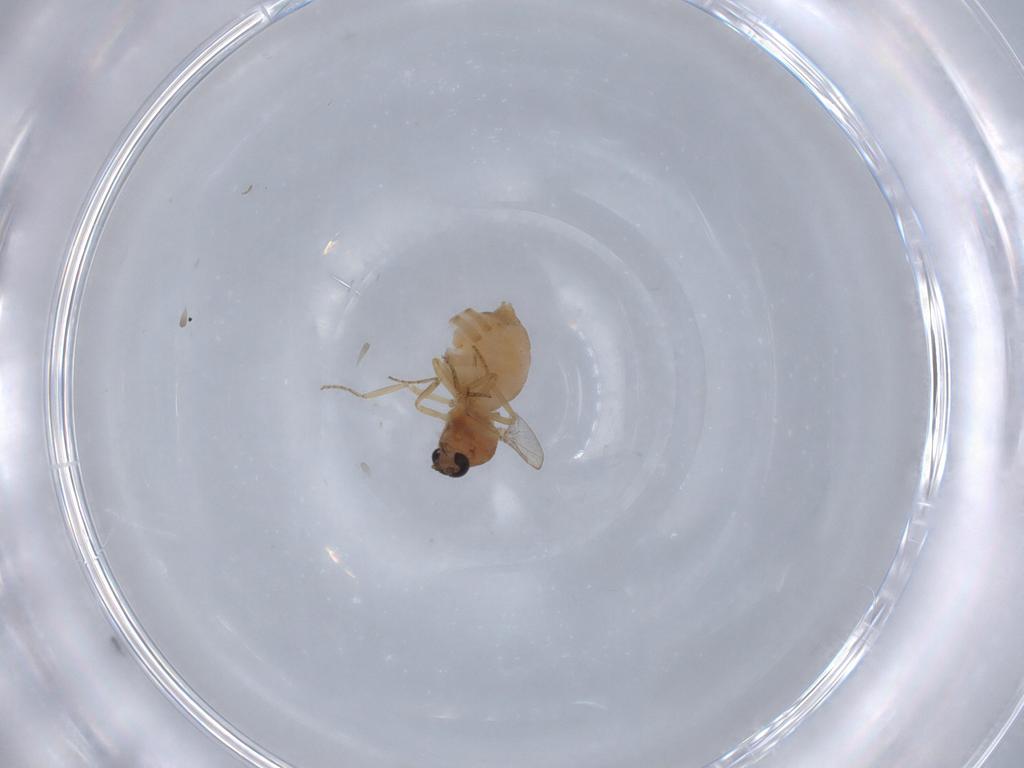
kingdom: Animalia
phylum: Arthropoda
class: Insecta
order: Diptera
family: Ceratopogonidae
